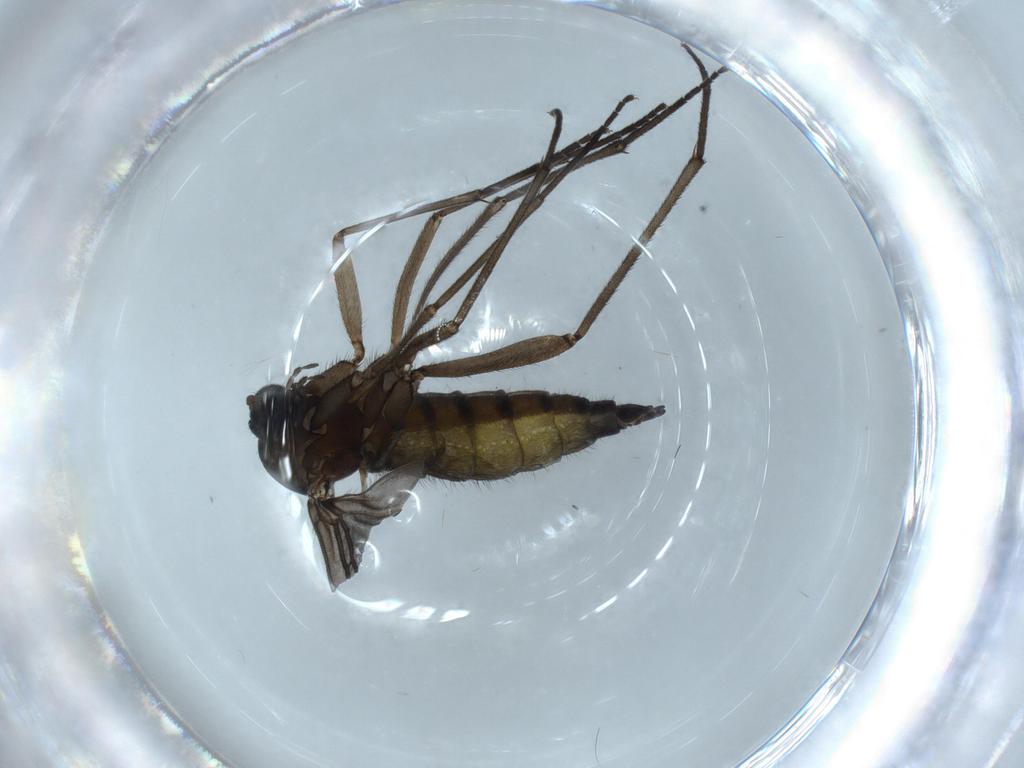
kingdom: Animalia
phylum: Arthropoda
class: Insecta
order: Diptera
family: Sciaridae
